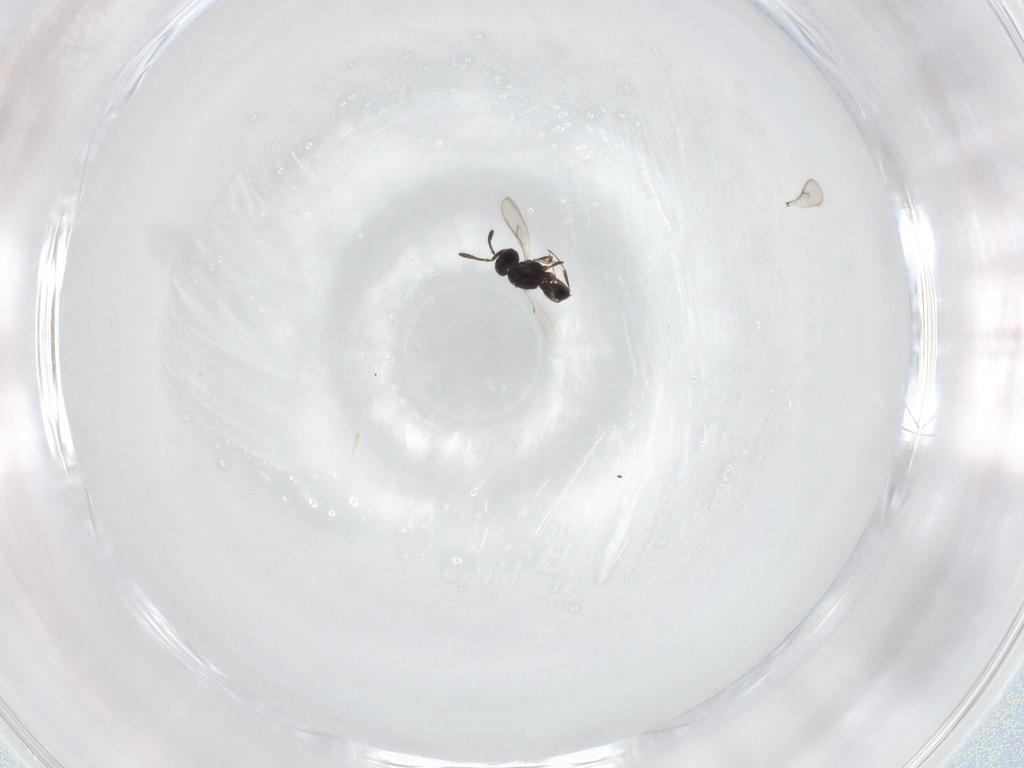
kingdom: Animalia
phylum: Arthropoda
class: Insecta
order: Hymenoptera
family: Scelionidae
